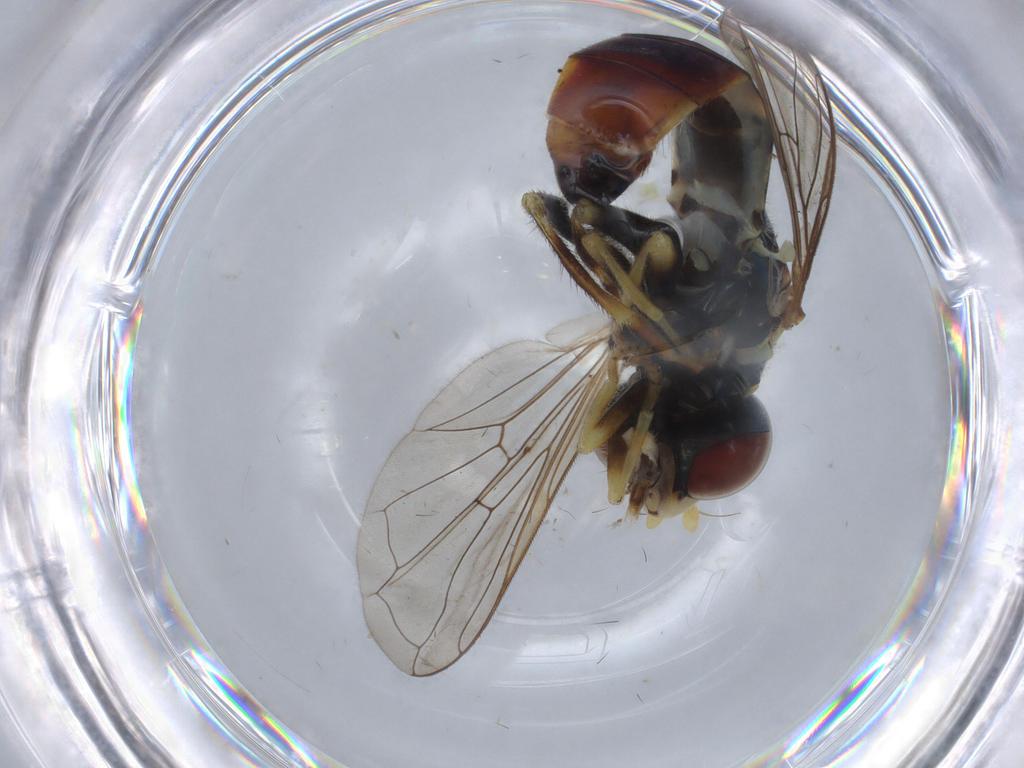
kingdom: Animalia
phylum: Arthropoda
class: Insecta
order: Diptera
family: Syrphidae
